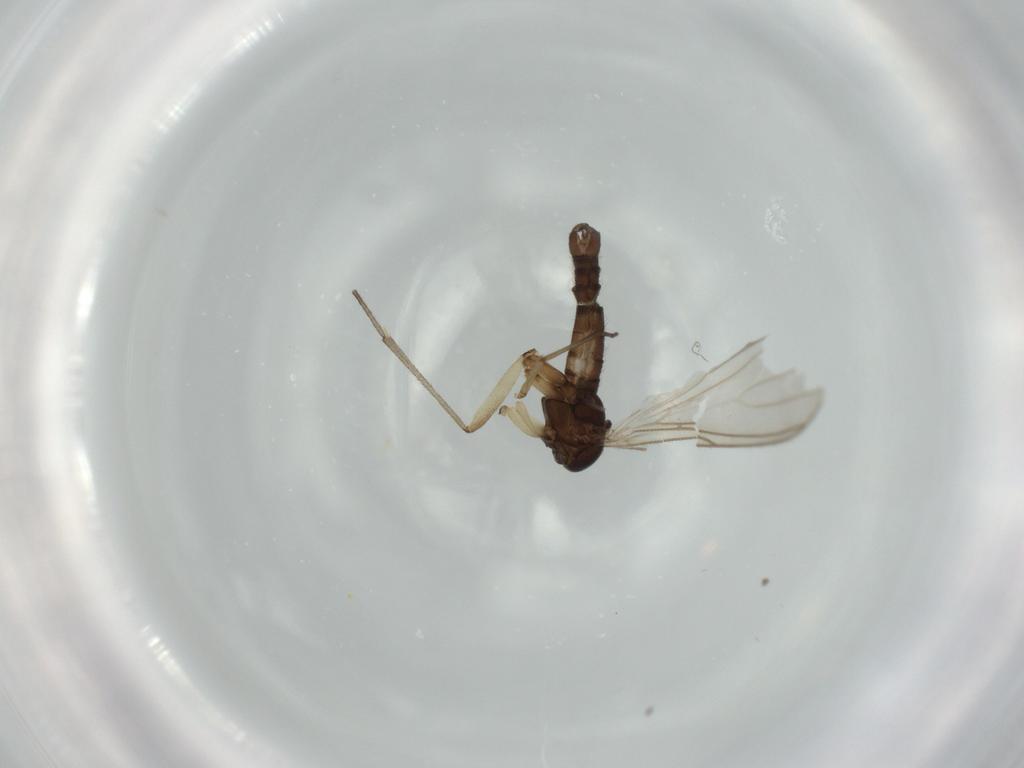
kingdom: Animalia
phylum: Arthropoda
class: Insecta
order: Diptera
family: Sciaridae
